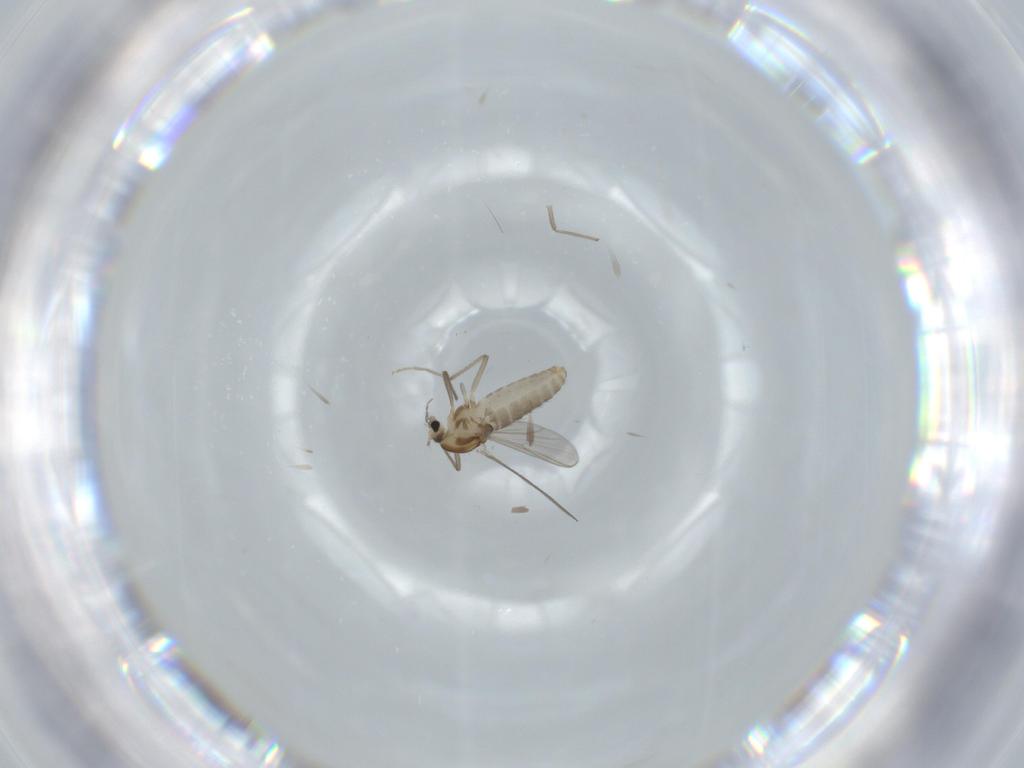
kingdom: Animalia
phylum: Arthropoda
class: Insecta
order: Diptera
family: Chironomidae
